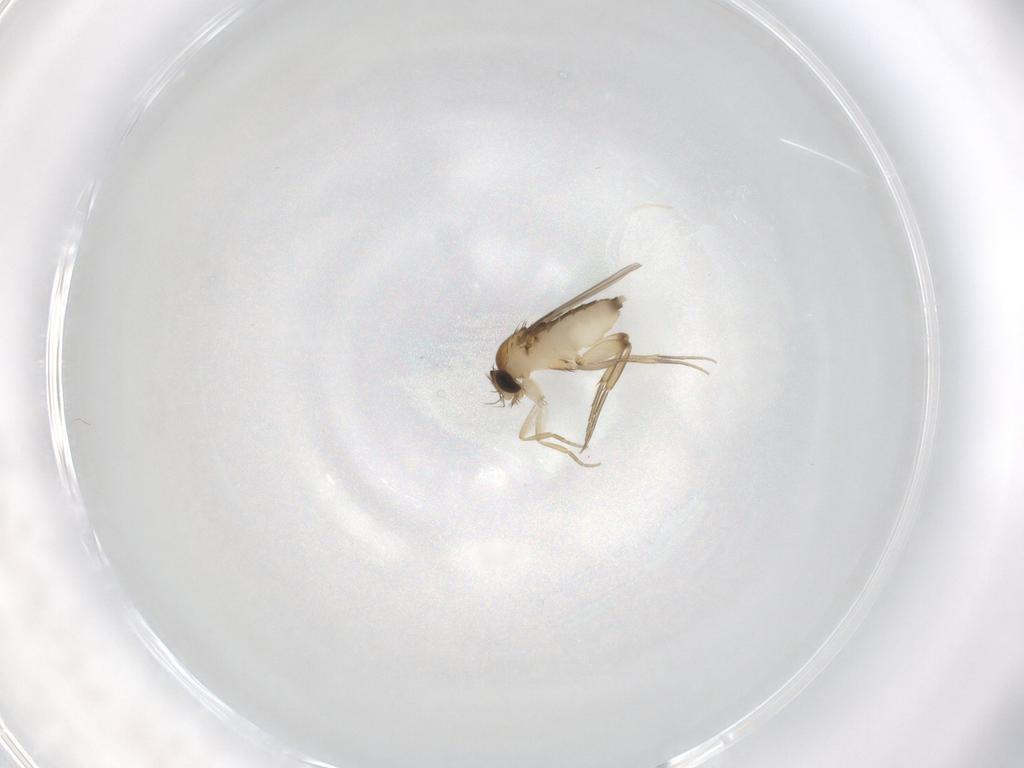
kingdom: Animalia
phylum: Arthropoda
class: Insecta
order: Diptera
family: Phoridae
